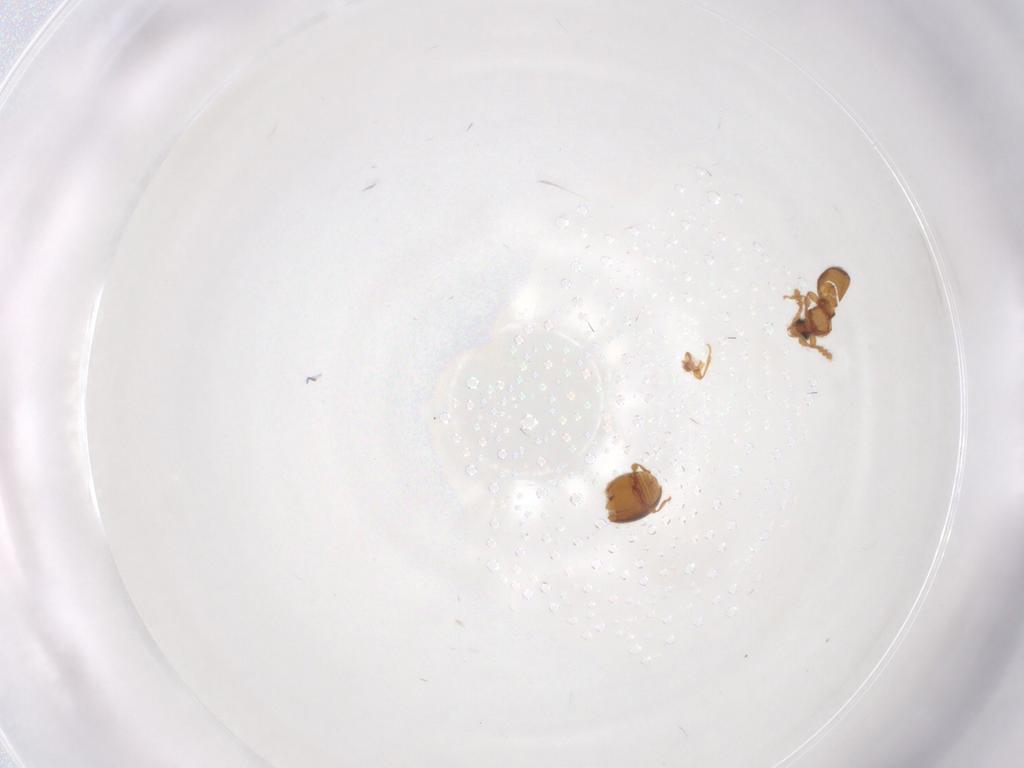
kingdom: Animalia
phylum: Arthropoda
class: Insecta
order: Coleoptera
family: Staphylinidae
